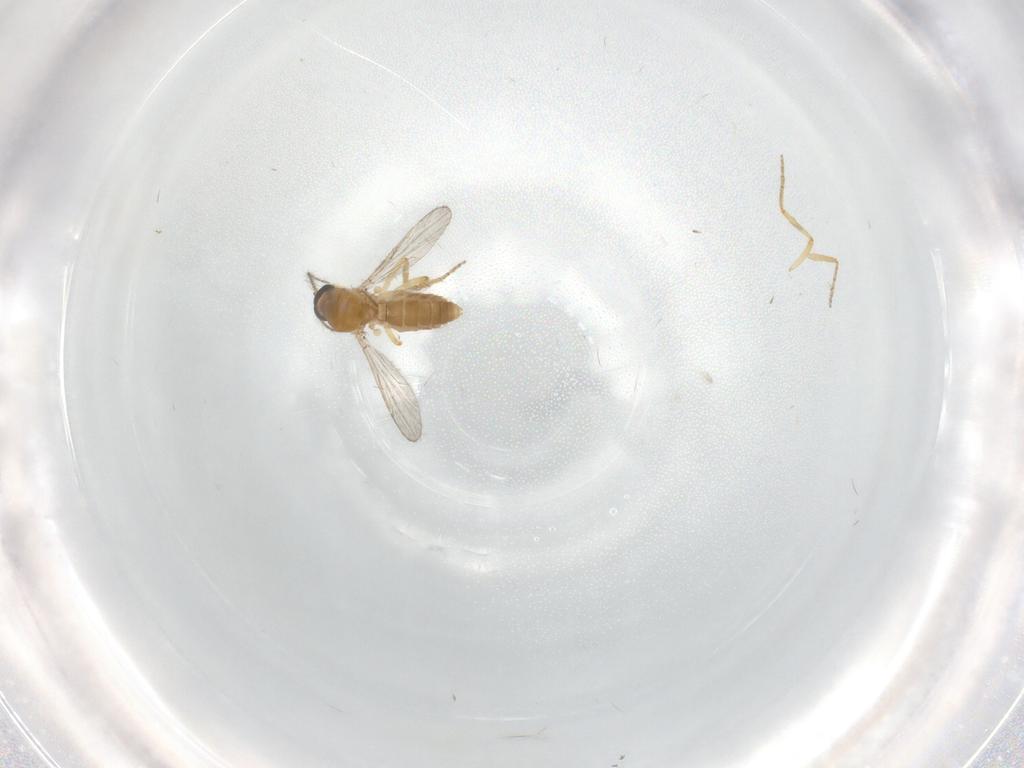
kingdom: Animalia
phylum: Arthropoda
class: Insecta
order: Diptera
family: Ceratopogonidae
